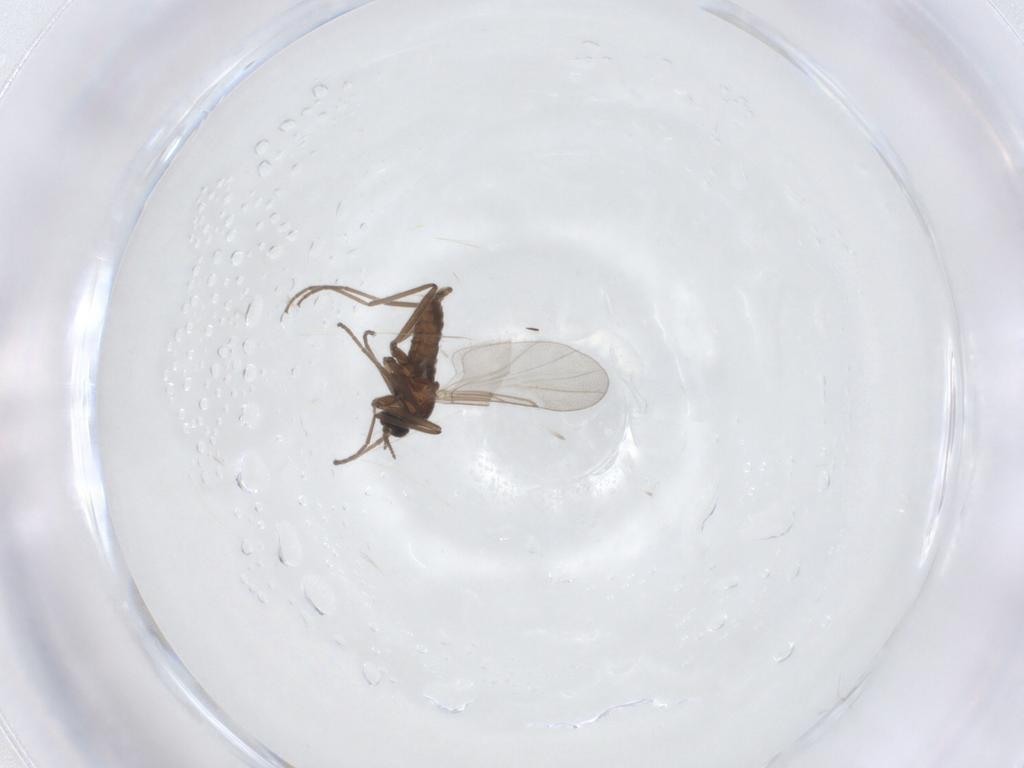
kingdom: Animalia
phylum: Arthropoda
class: Insecta
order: Diptera
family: Cecidomyiidae
